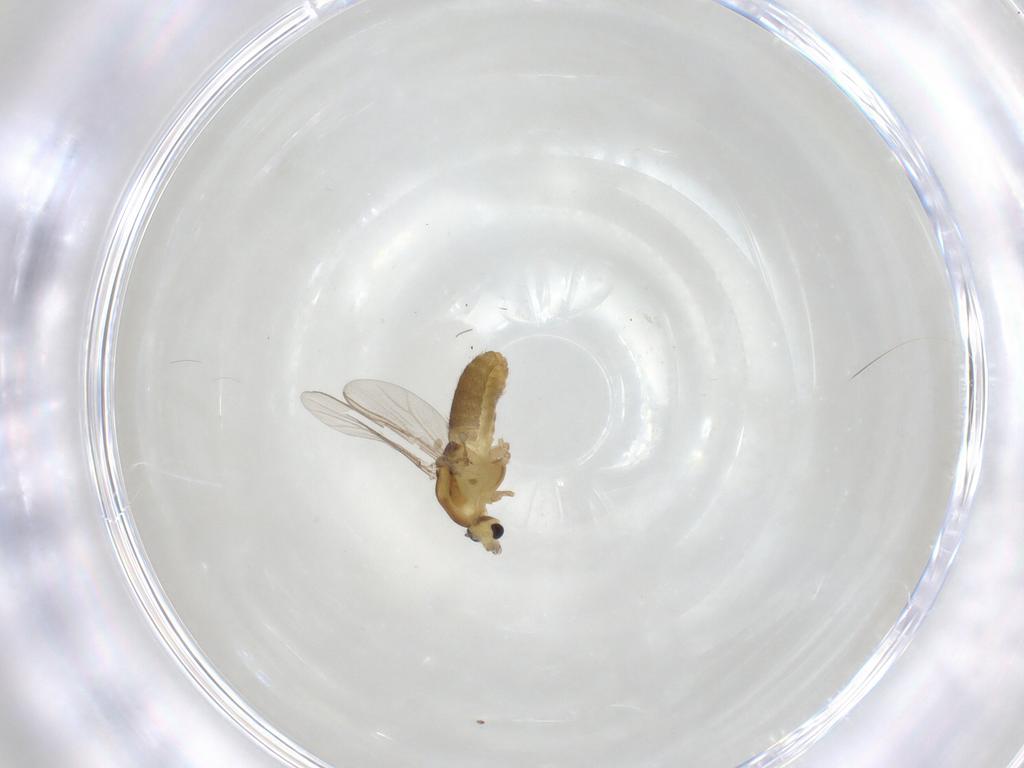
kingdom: Animalia
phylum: Arthropoda
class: Insecta
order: Diptera
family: Chironomidae
